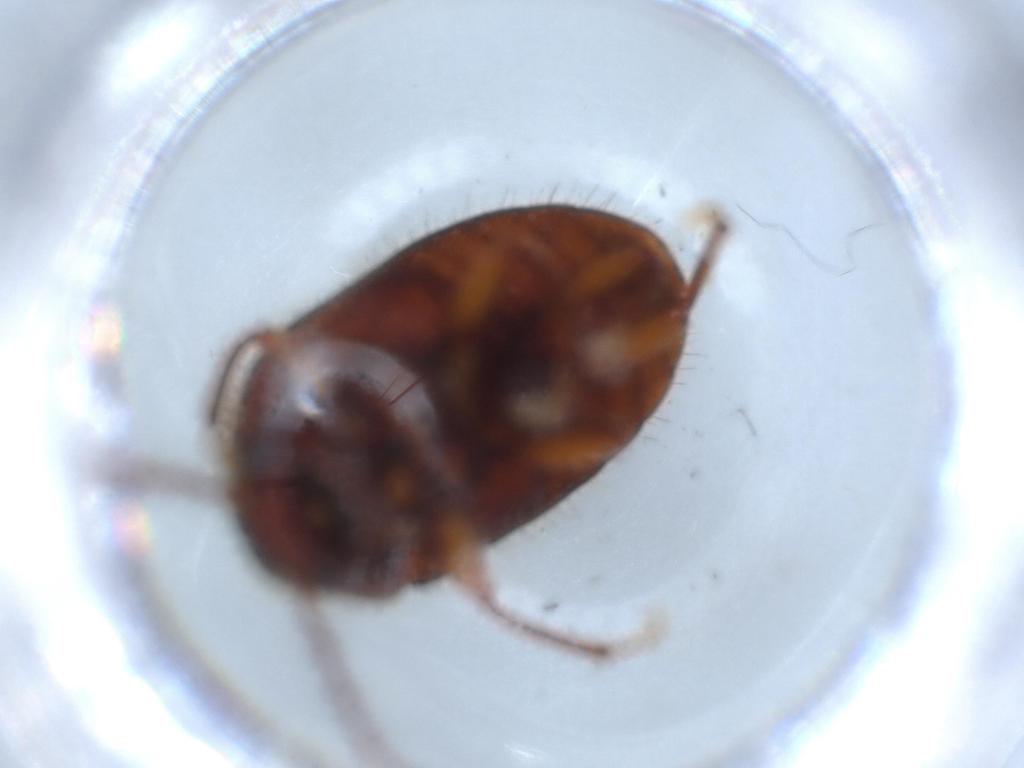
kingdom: Animalia
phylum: Arthropoda
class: Insecta
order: Coleoptera
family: Artematopodidae
